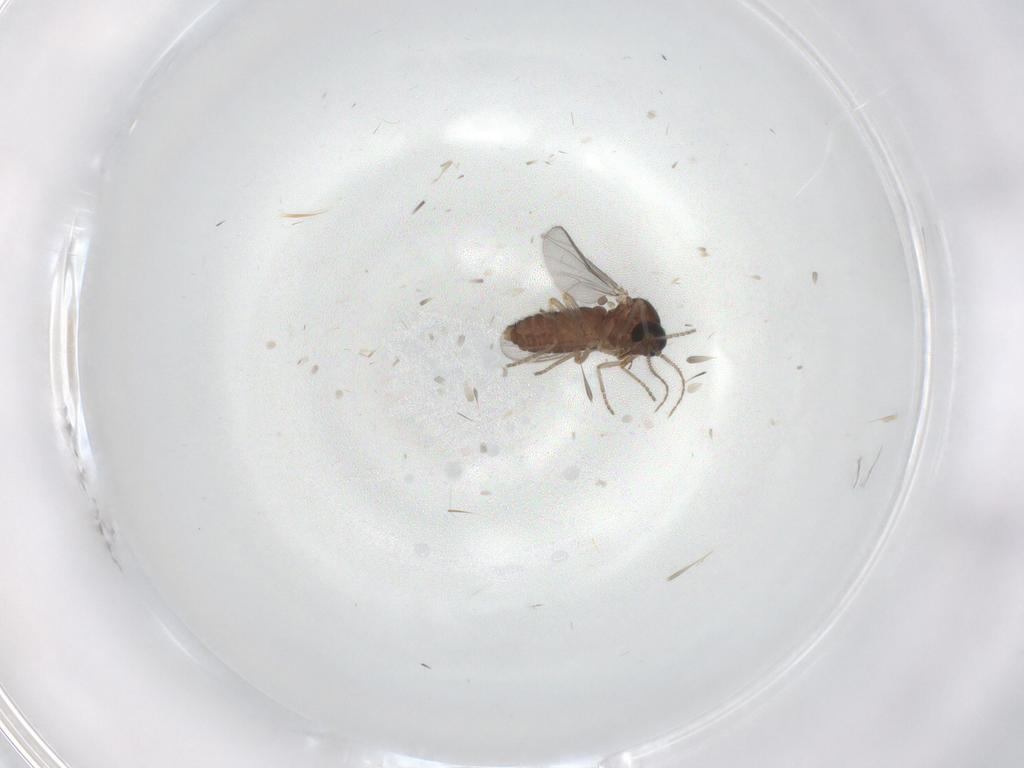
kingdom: Animalia
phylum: Arthropoda
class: Insecta
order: Diptera
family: Ceratopogonidae
